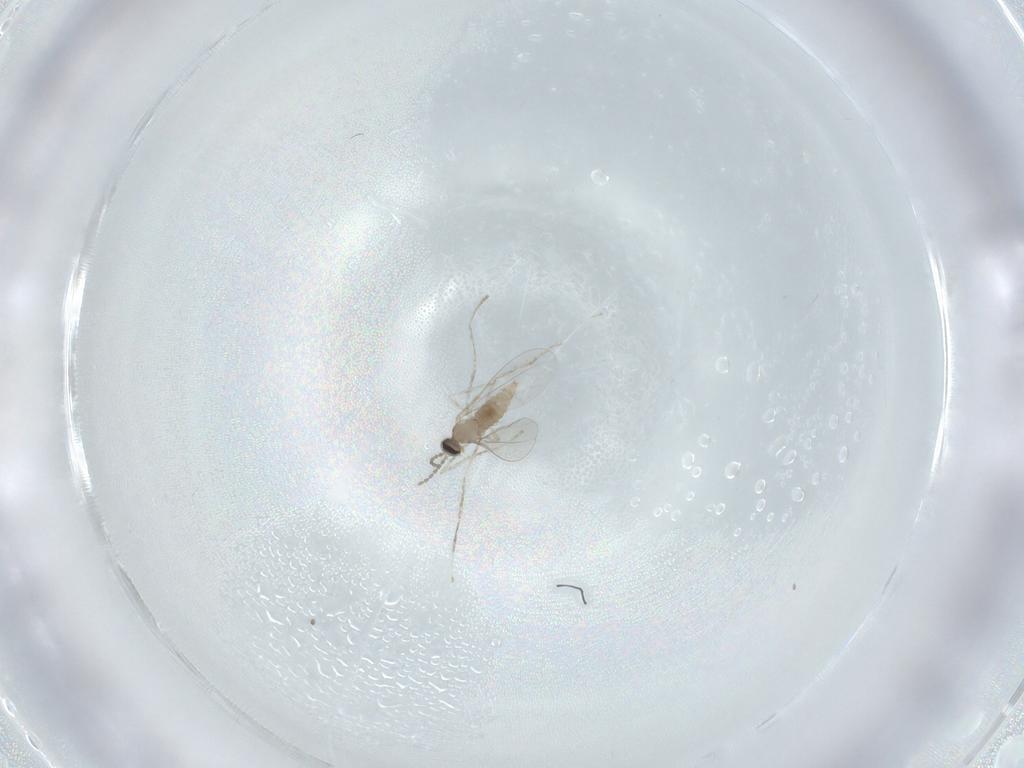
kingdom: Animalia
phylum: Arthropoda
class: Insecta
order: Diptera
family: Cecidomyiidae
